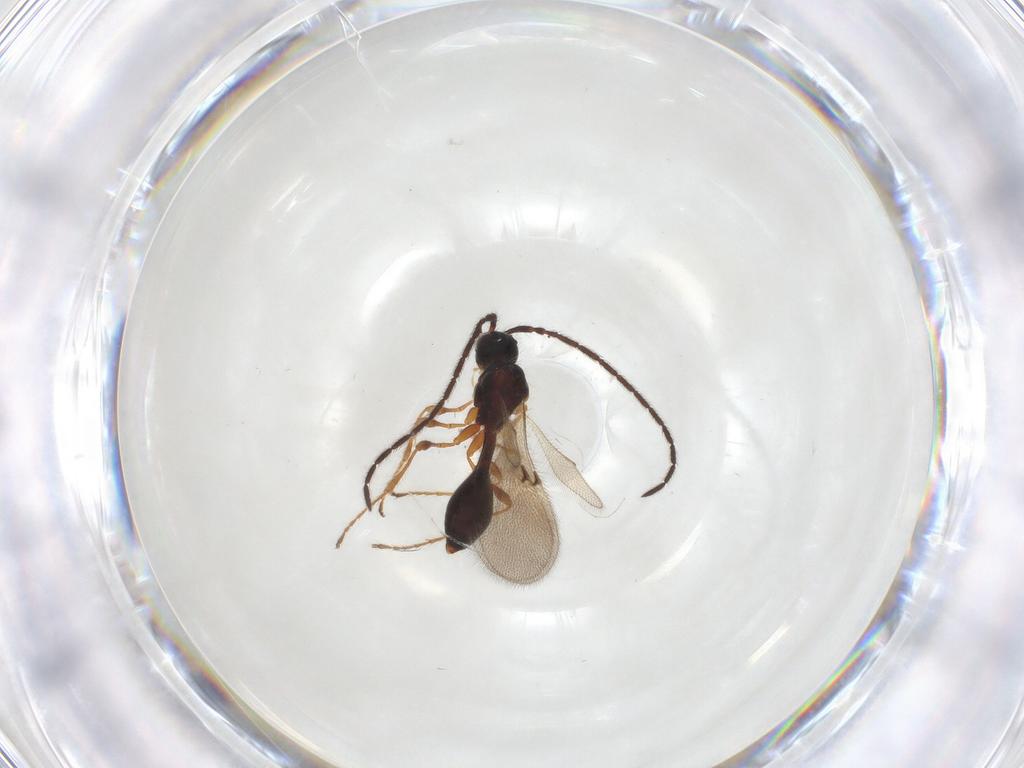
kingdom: Animalia
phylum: Arthropoda
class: Insecta
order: Hymenoptera
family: Diapriidae
